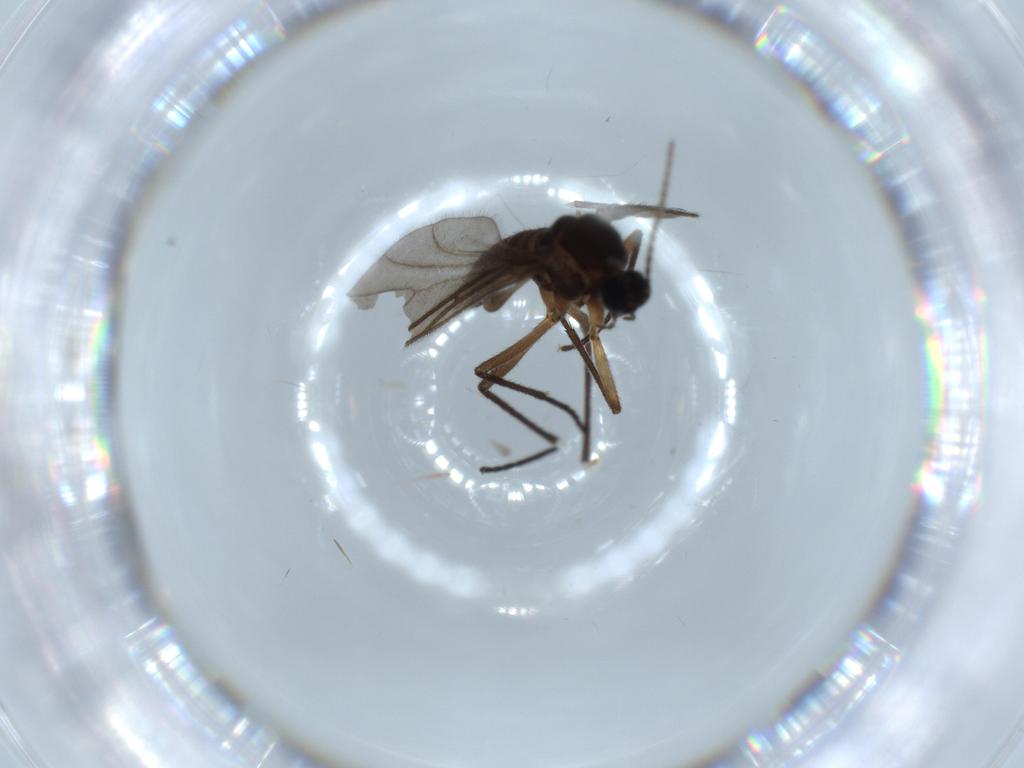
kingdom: Animalia
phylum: Arthropoda
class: Insecta
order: Diptera
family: Sciaridae
